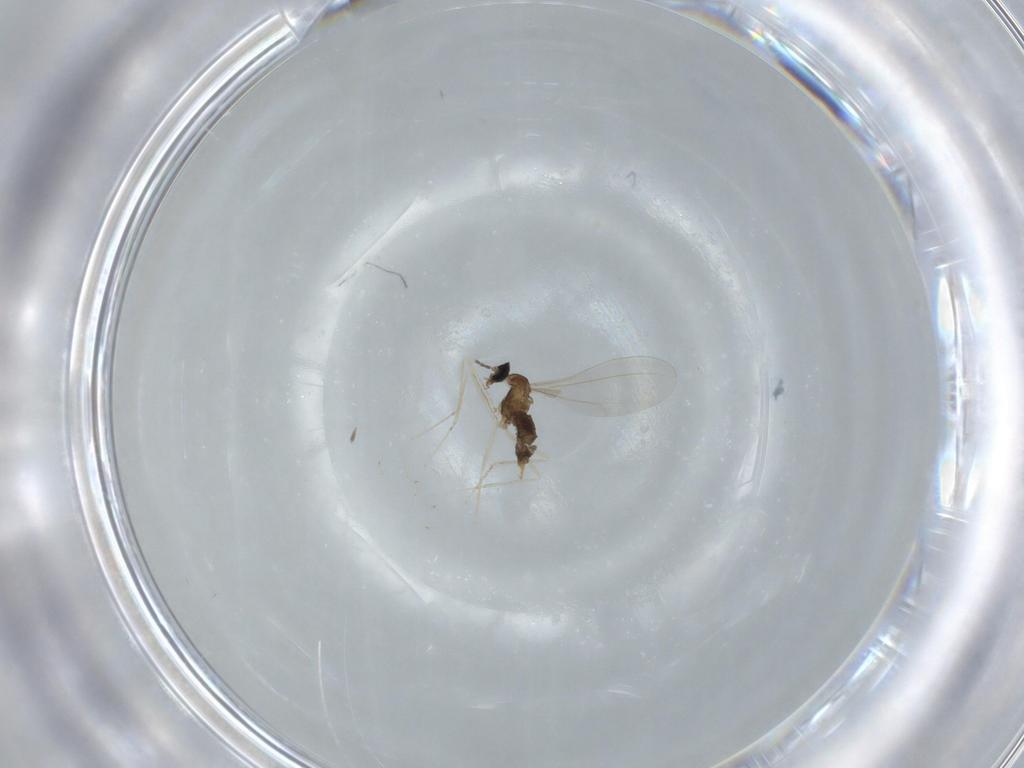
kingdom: Animalia
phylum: Arthropoda
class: Insecta
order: Diptera
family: Cecidomyiidae
